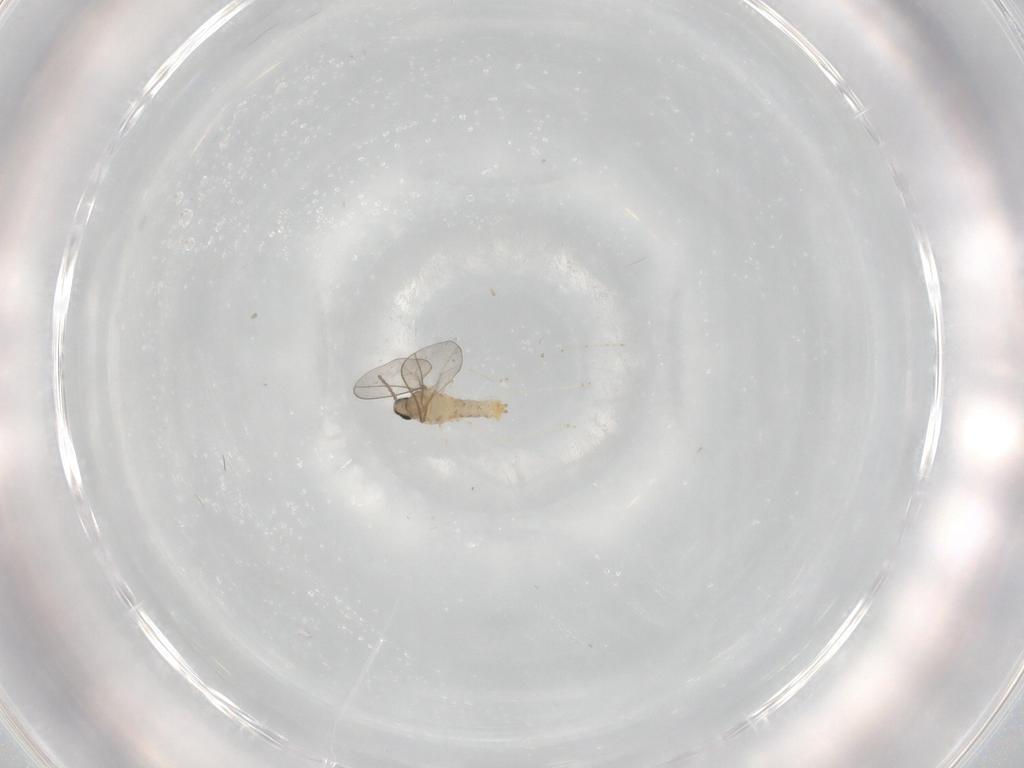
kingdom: Animalia
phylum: Arthropoda
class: Insecta
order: Diptera
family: Cecidomyiidae
